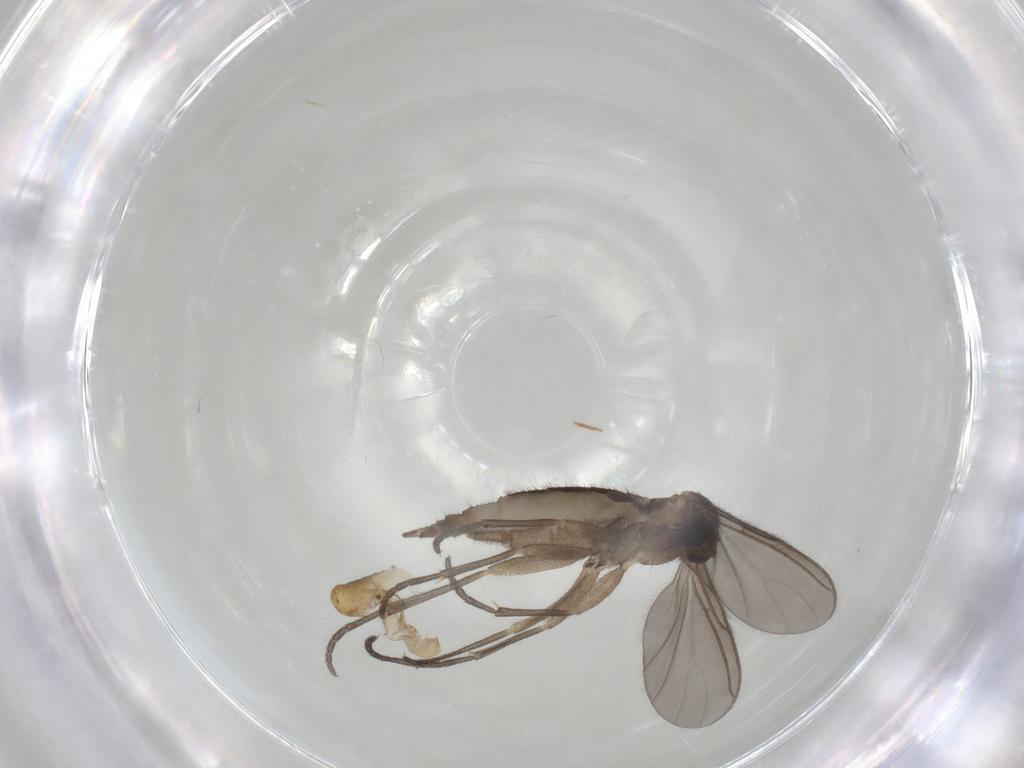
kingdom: Animalia
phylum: Arthropoda
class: Insecta
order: Diptera
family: Sciaridae
